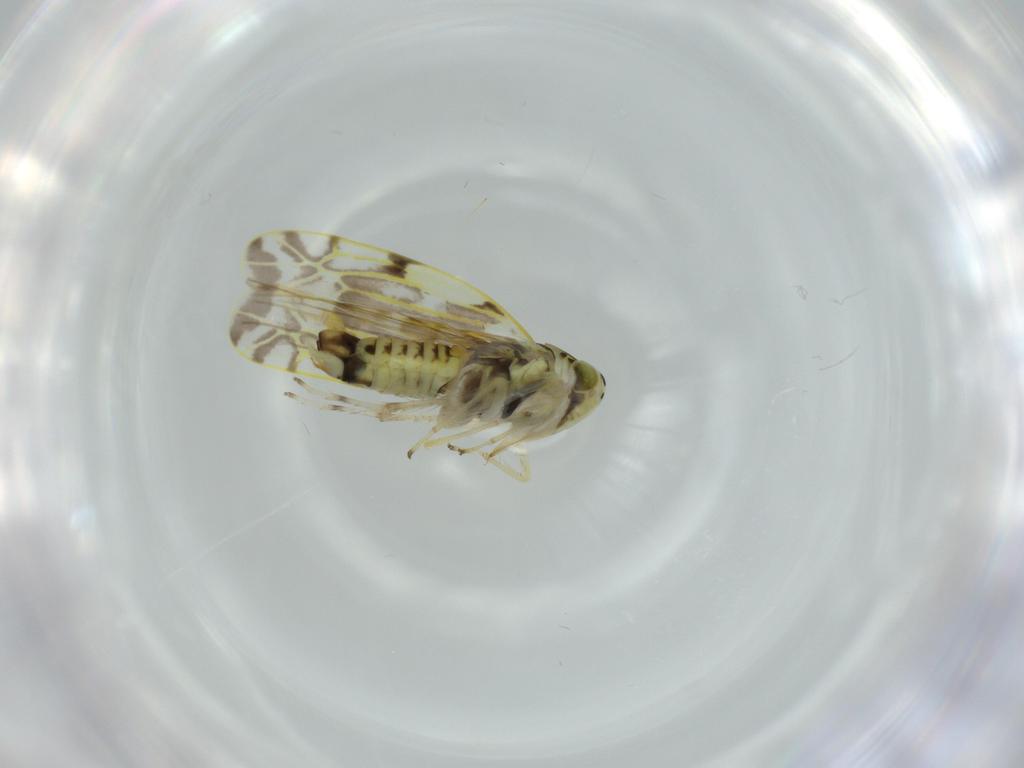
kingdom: Animalia
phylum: Arthropoda
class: Insecta
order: Hemiptera
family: Cicadellidae
